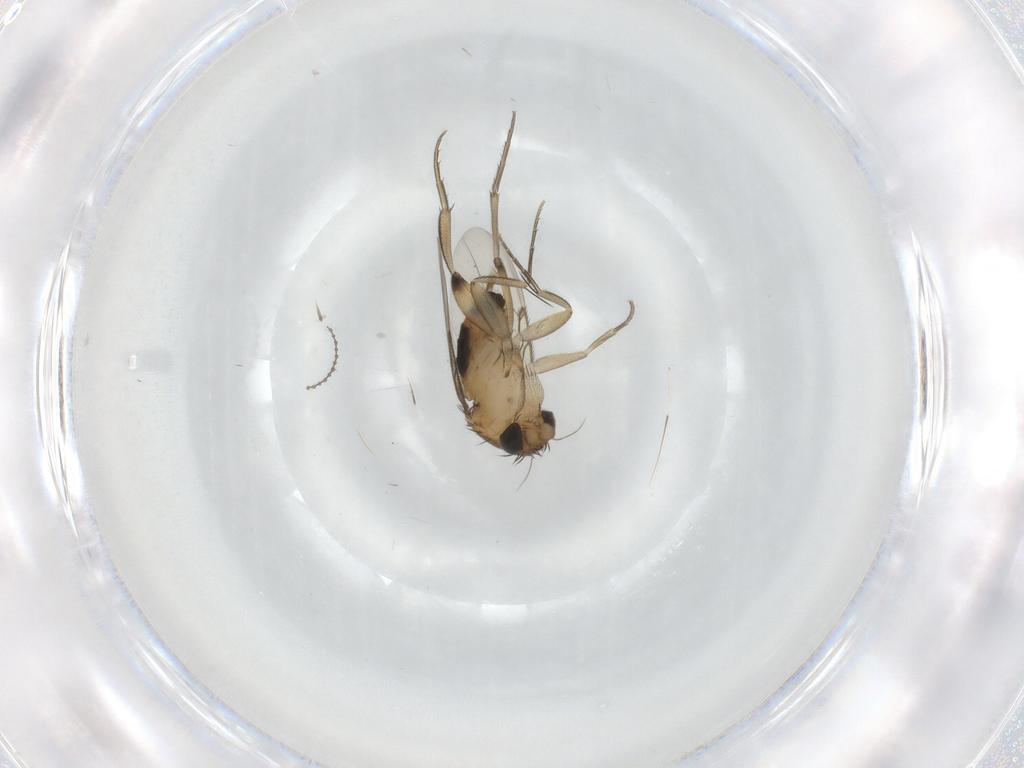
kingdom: Animalia
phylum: Arthropoda
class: Insecta
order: Diptera
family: Phoridae
